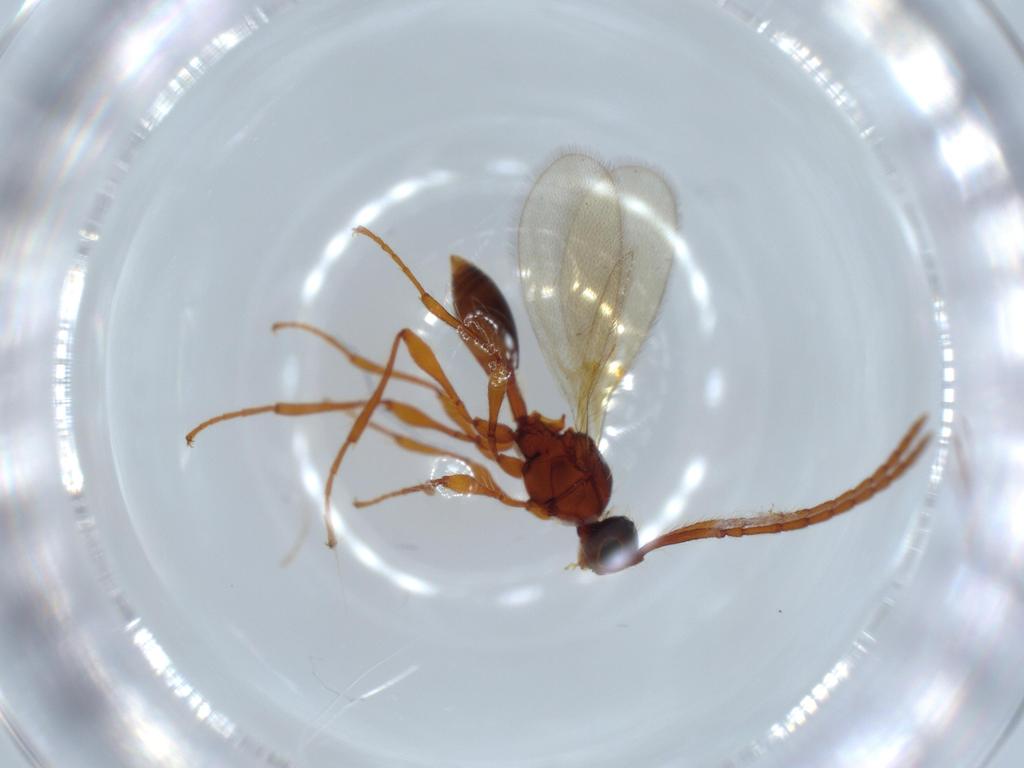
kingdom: Animalia
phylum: Arthropoda
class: Insecta
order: Hymenoptera
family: Diapriidae
